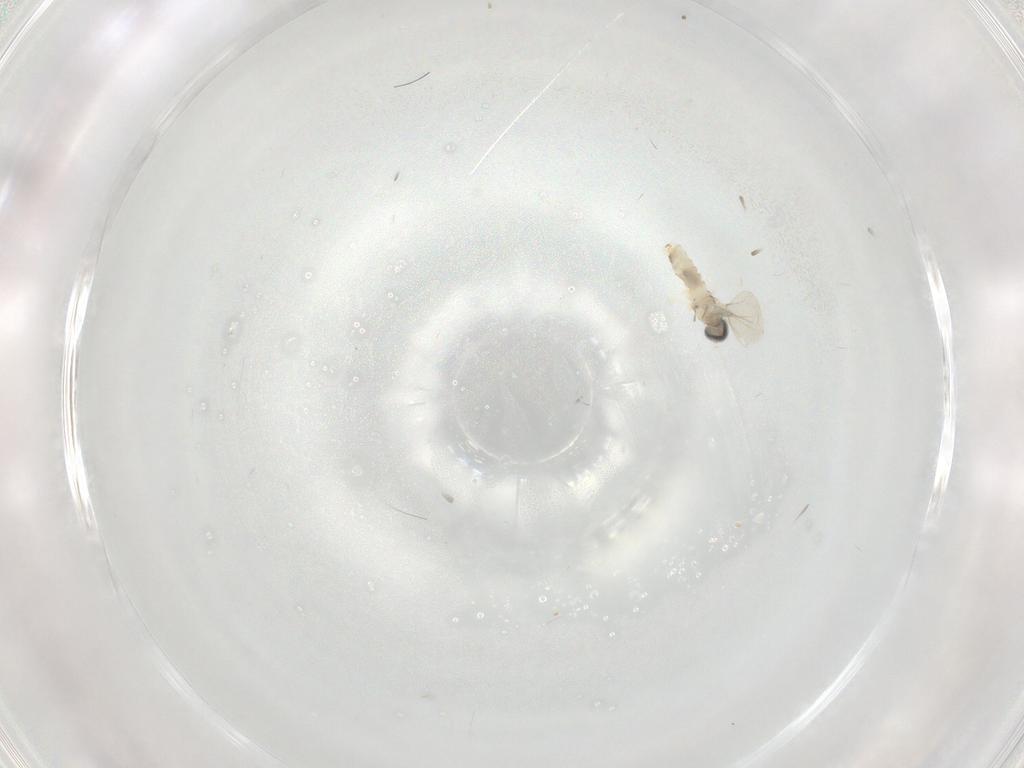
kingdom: Animalia
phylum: Arthropoda
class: Insecta
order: Diptera
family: Cecidomyiidae
